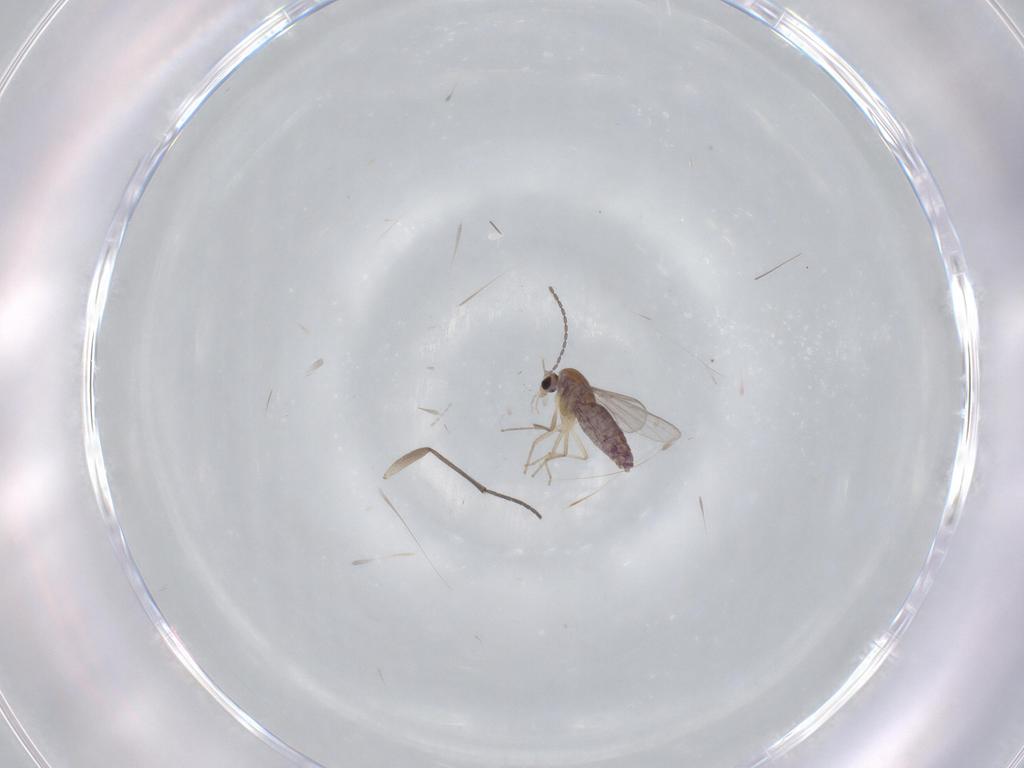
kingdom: Animalia
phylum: Arthropoda
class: Insecta
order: Diptera
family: Chironomidae
